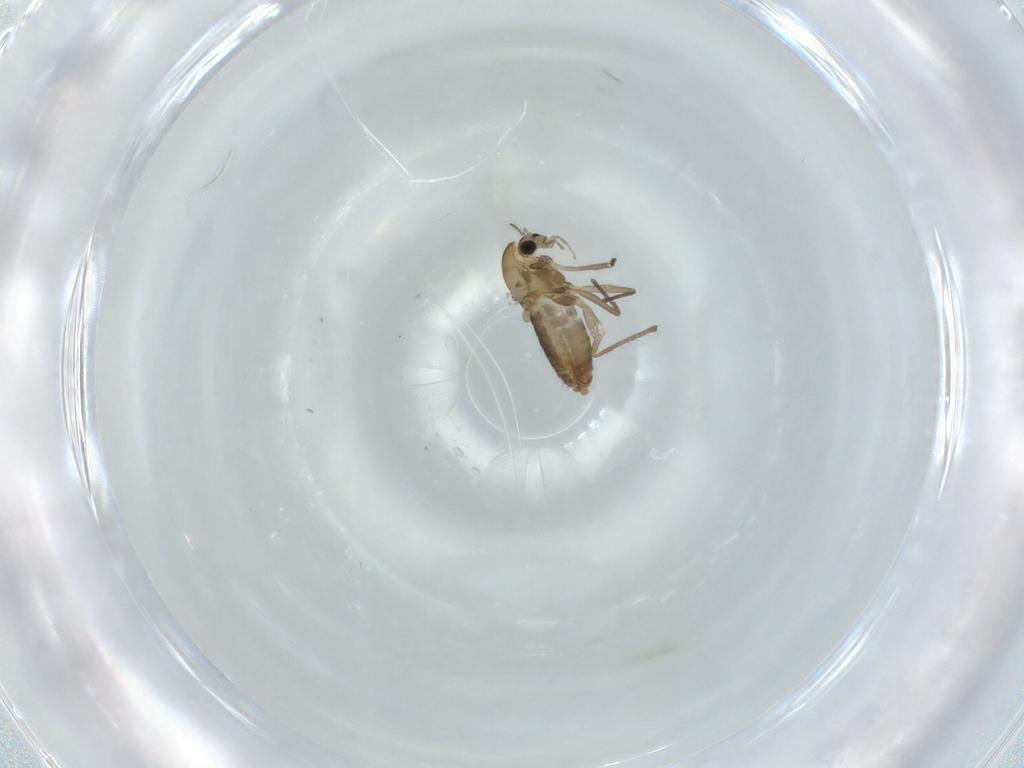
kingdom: Animalia
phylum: Arthropoda
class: Insecta
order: Diptera
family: Chironomidae
